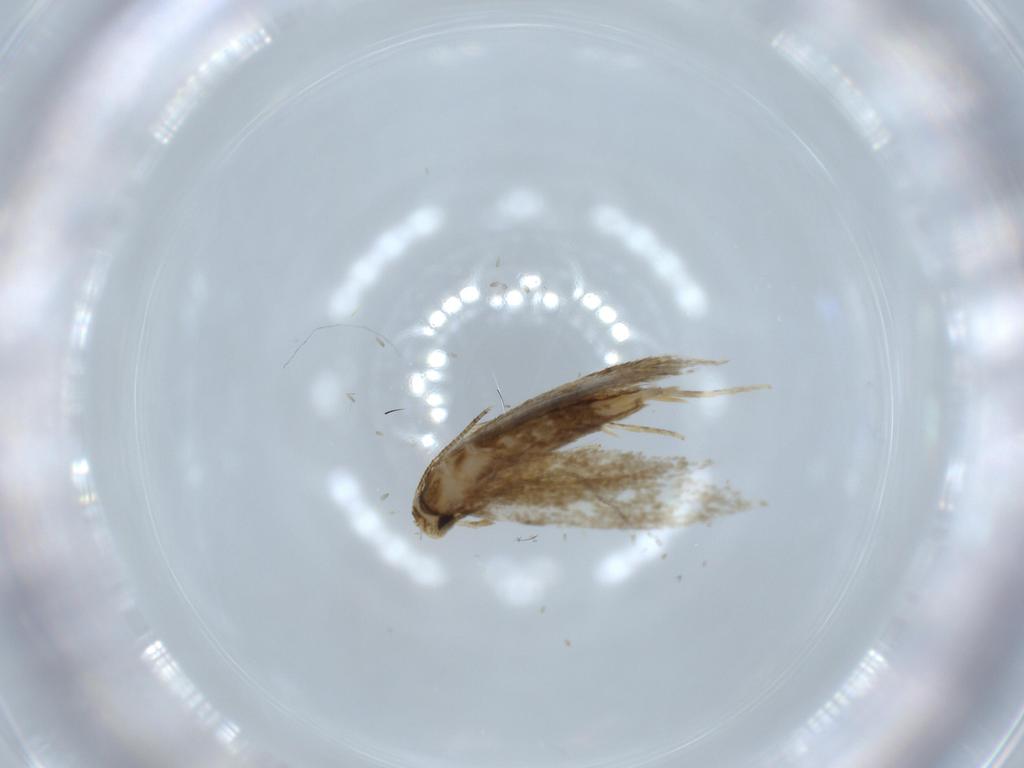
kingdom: Animalia
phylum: Arthropoda
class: Insecta
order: Lepidoptera
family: Tineidae
